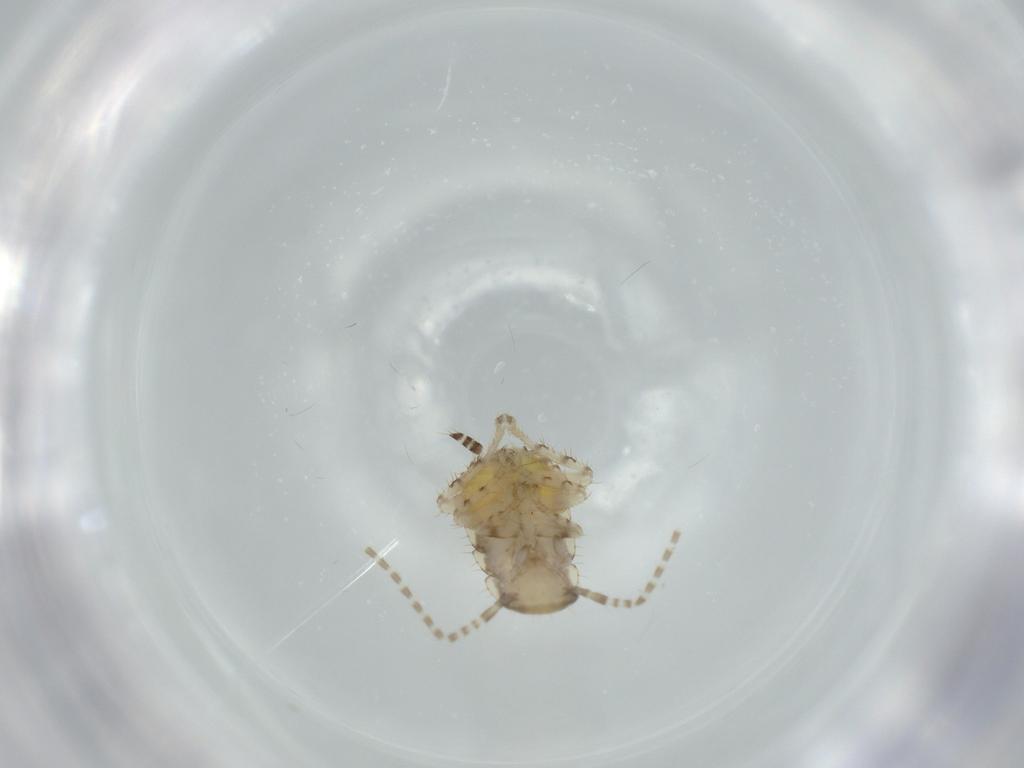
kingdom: Animalia
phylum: Arthropoda
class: Insecta
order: Blattodea
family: Ectobiidae
